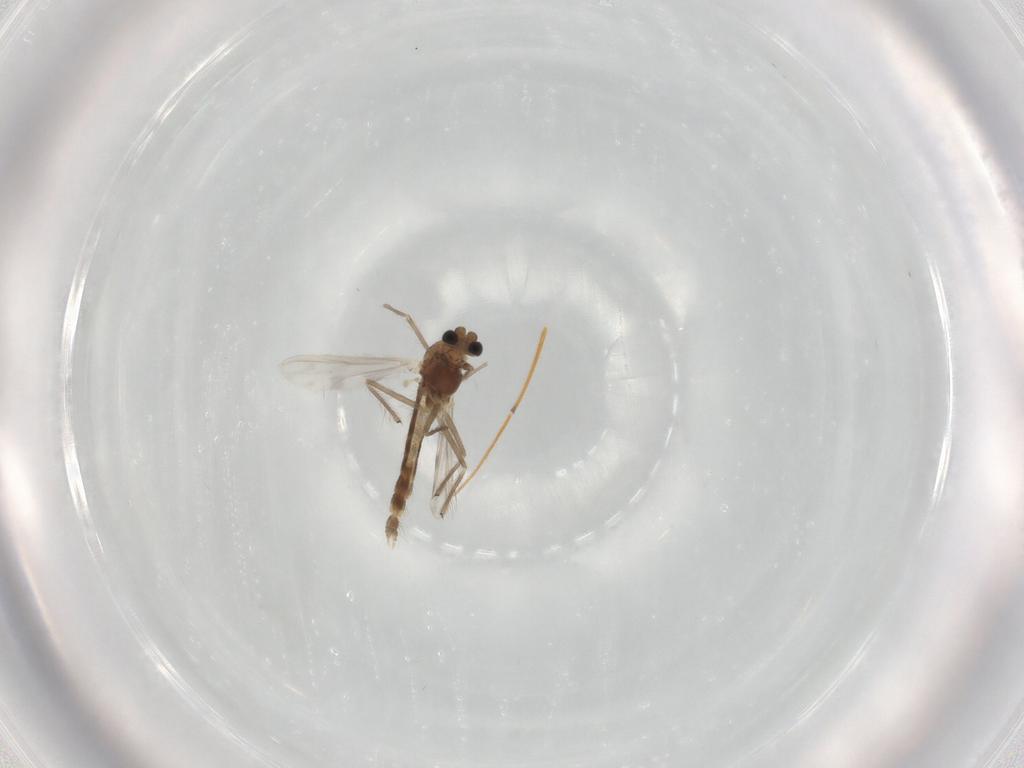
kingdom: Animalia
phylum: Arthropoda
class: Insecta
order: Diptera
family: Chironomidae
